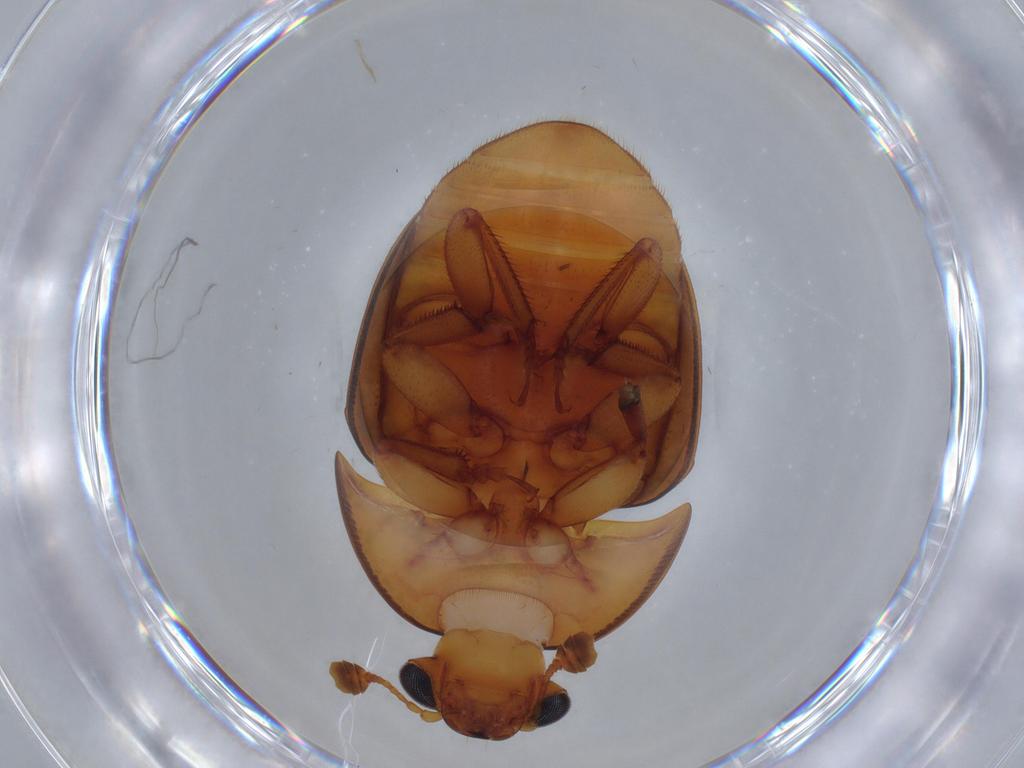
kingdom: Animalia
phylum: Arthropoda
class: Insecta
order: Coleoptera
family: Nitidulidae
